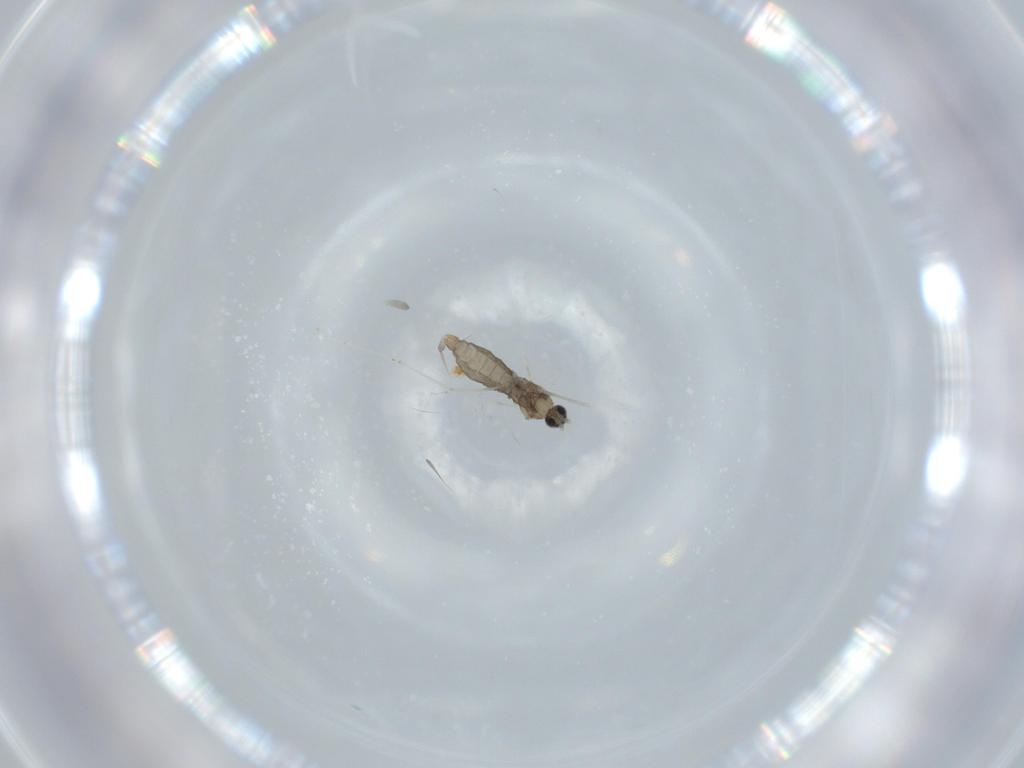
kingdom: Animalia
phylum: Arthropoda
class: Insecta
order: Diptera
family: Cecidomyiidae
